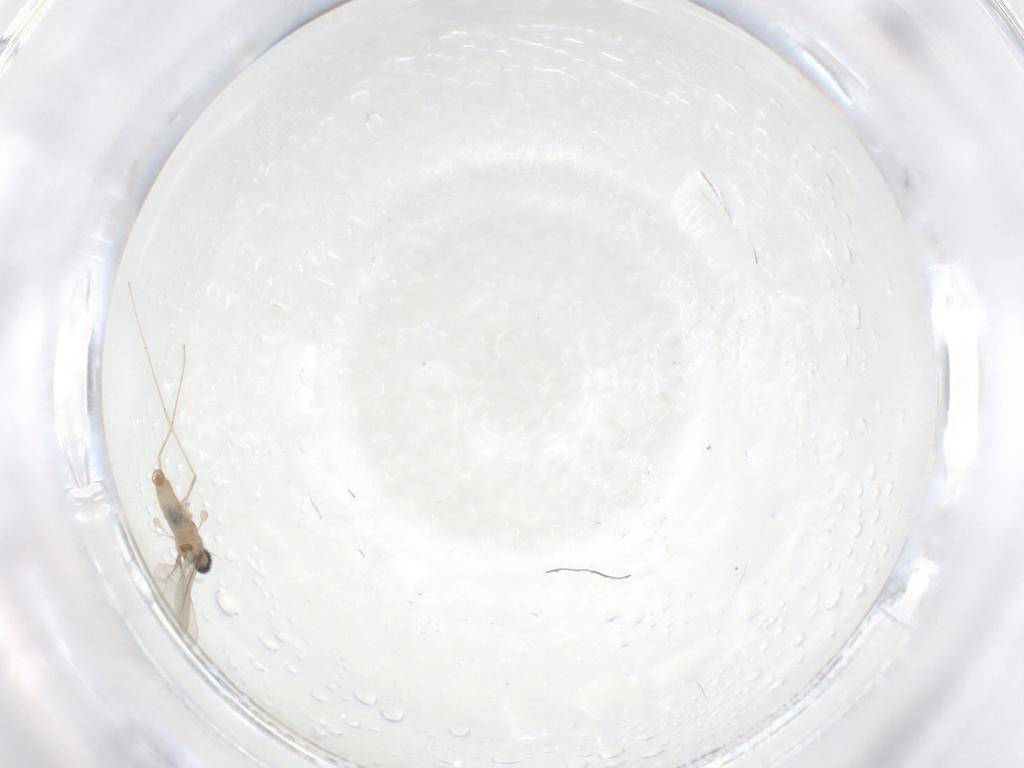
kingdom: Animalia
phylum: Arthropoda
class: Insecta
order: Diptera
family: Cecidomyiidae
